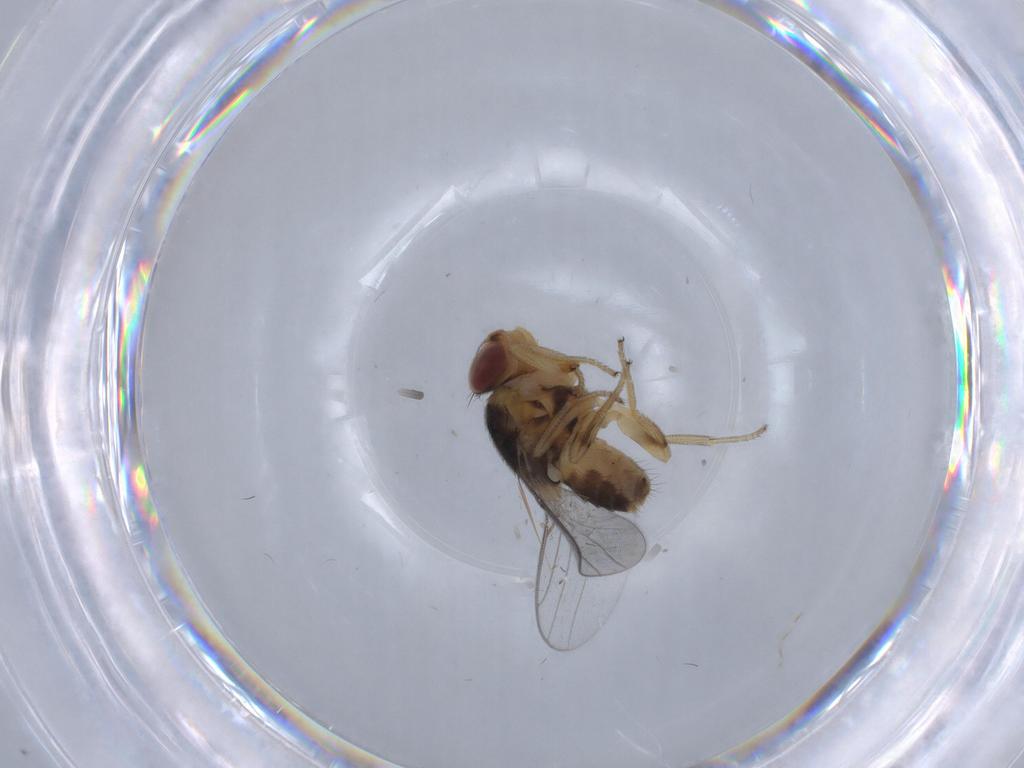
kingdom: Animalia
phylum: Arthropoda
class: Insecta
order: Diptera
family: Chloropidae
